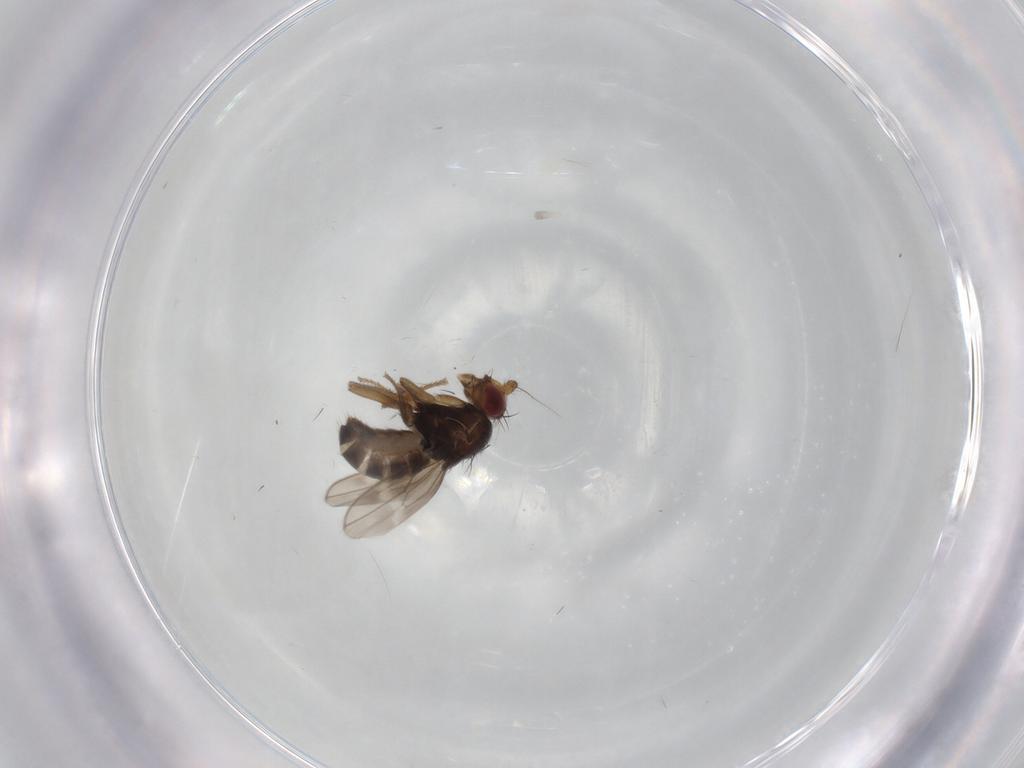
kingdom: Animalia
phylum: Arthropoda
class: Insecta
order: Diptera
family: Sphaeroceridae
